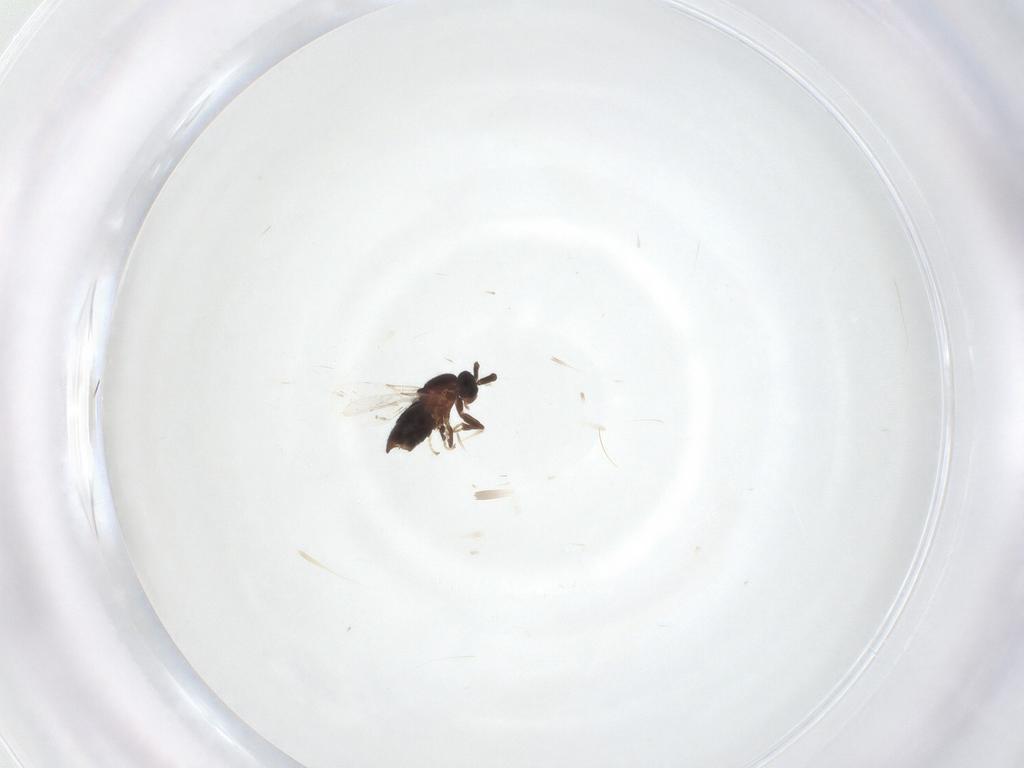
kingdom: Animalia
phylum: Arthropoda
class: Insecta
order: Diptera
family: Scatopsidae
